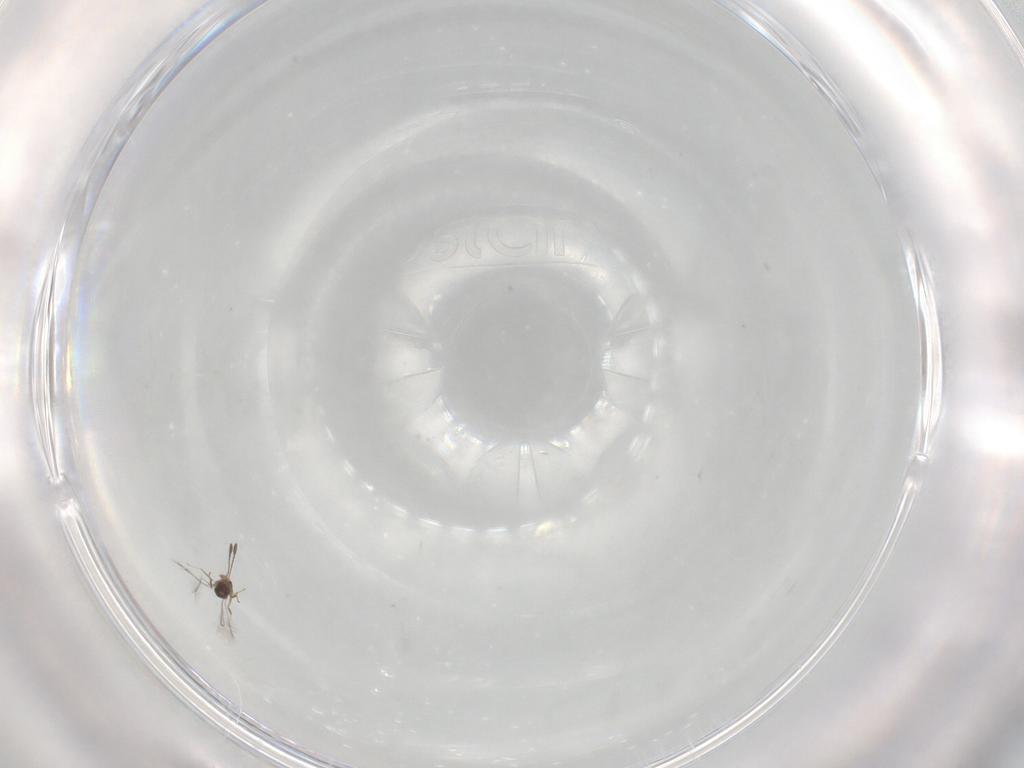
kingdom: Animalia
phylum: Arthropoda
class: Insecta
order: Hymenoptera
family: Eulophidae
